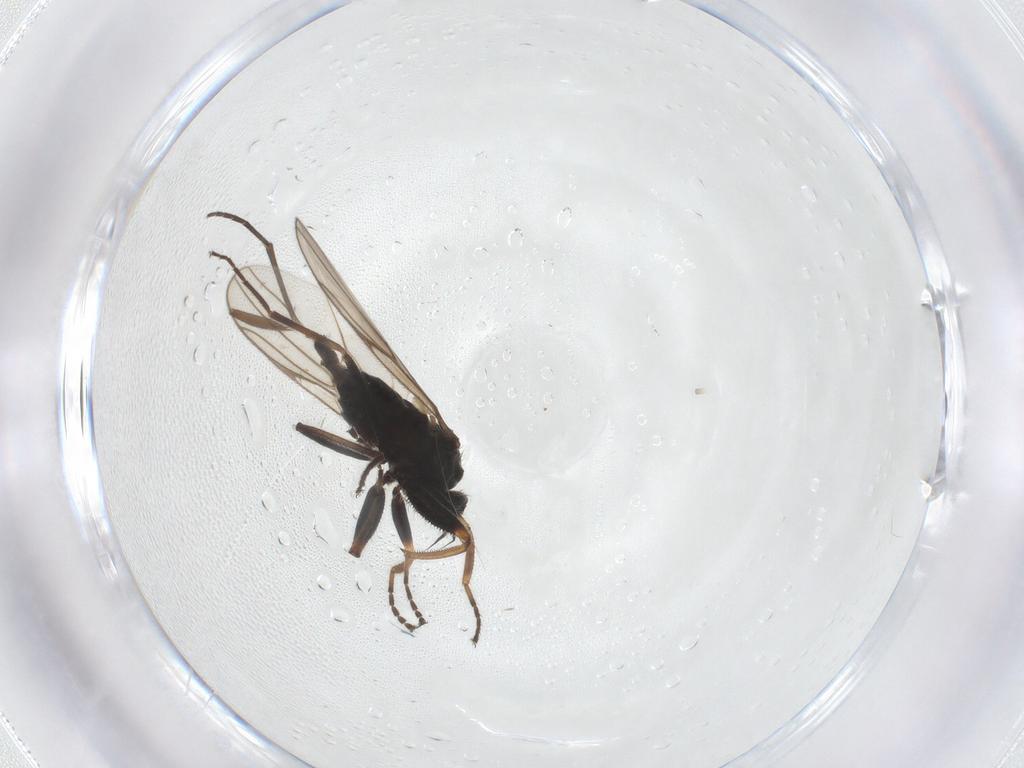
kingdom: Animalia
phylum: Arthropoda
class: Insecta
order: Diptera
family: Hybotidae
